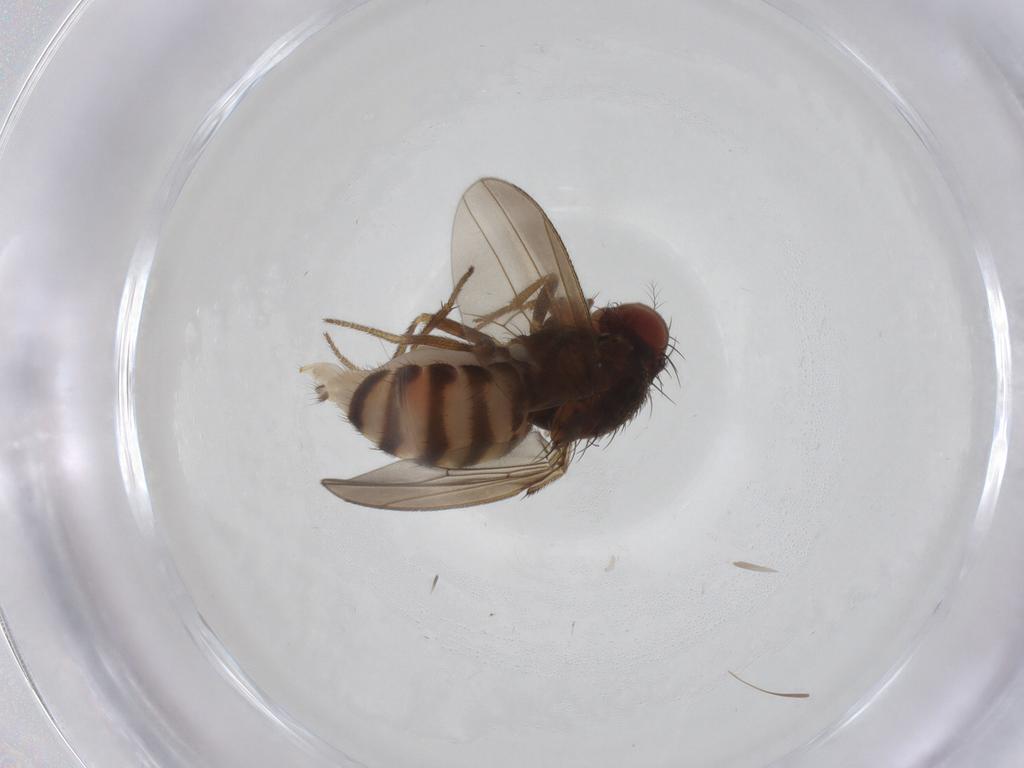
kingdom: Animalia
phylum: Arthropoda
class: Insecta
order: Diptera
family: Drosophilidae
